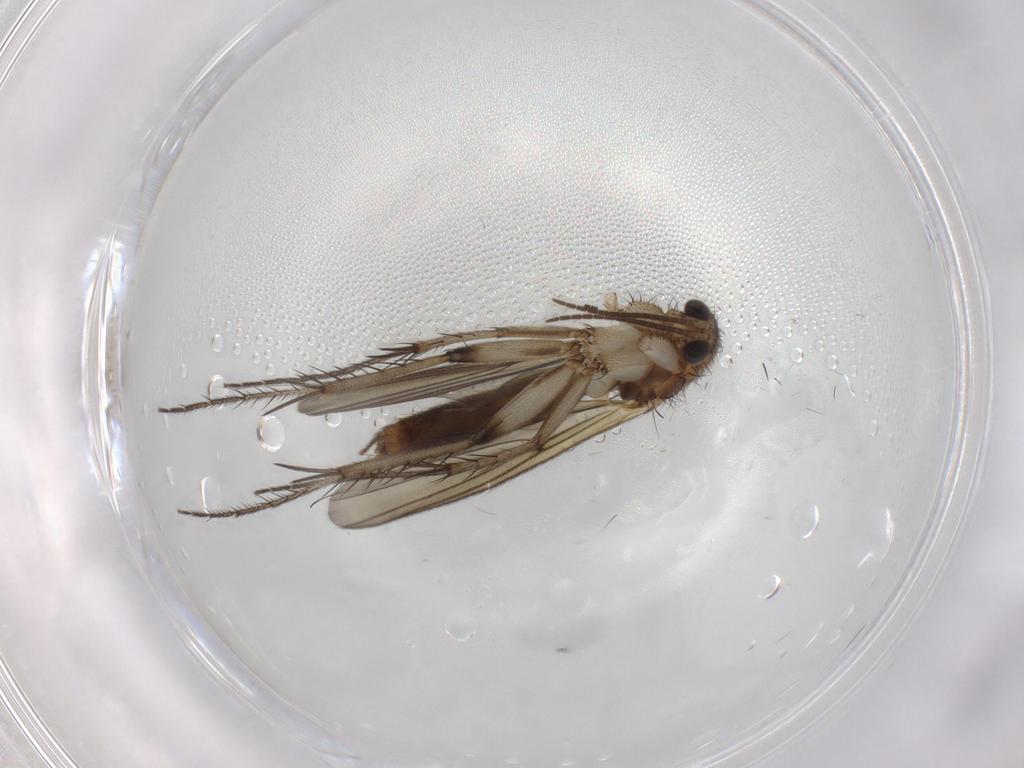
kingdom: Animalia
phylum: Arthropoda
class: Insecta
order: Diptera
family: Mycetophilidae
